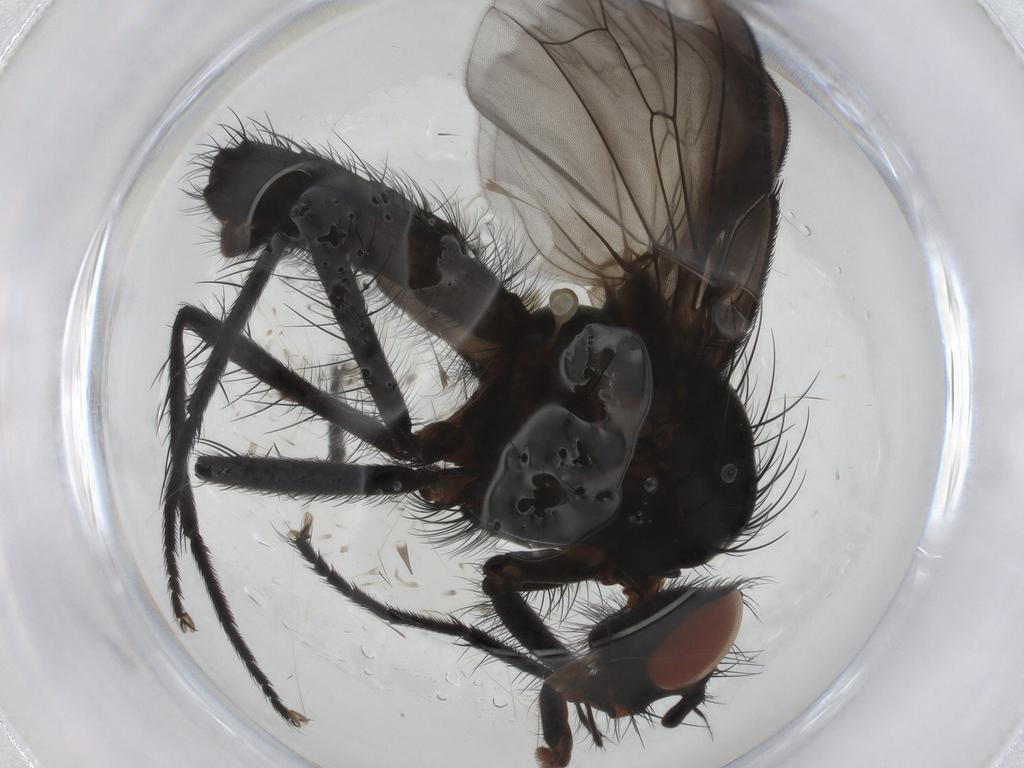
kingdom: Animalia
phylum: Arthropoda
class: Insecta
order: Diptera
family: Anthomyiidae
